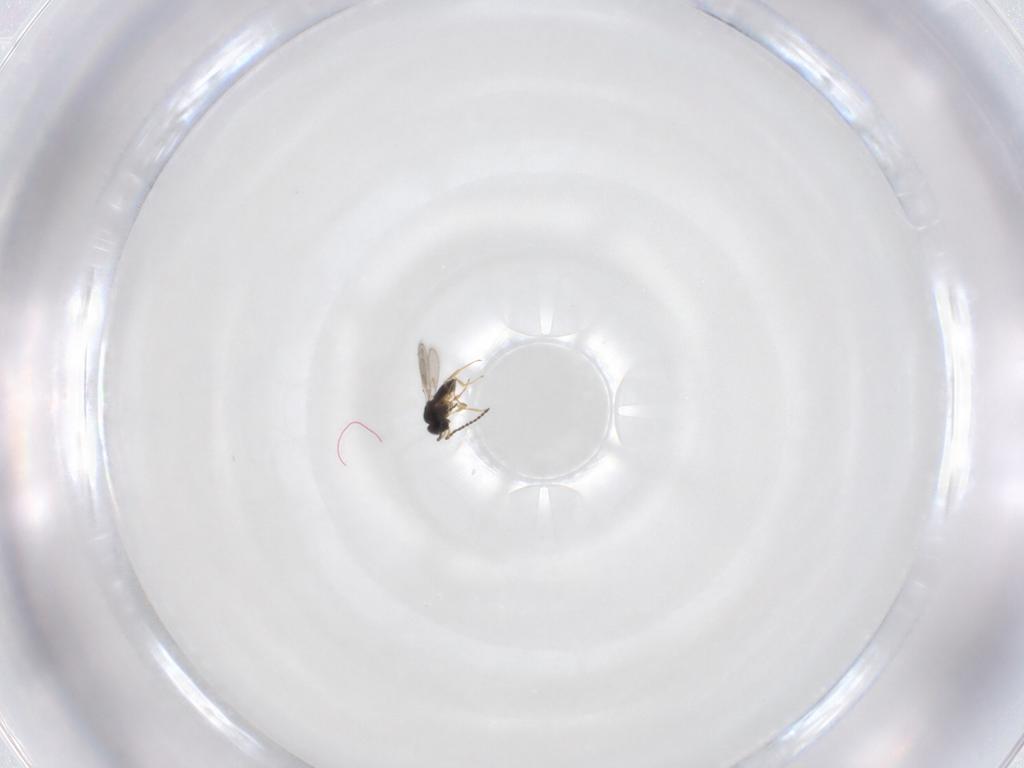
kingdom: Animalia
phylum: Arthropoda
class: Insecta
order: Hymenoptera
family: Scelionidae
